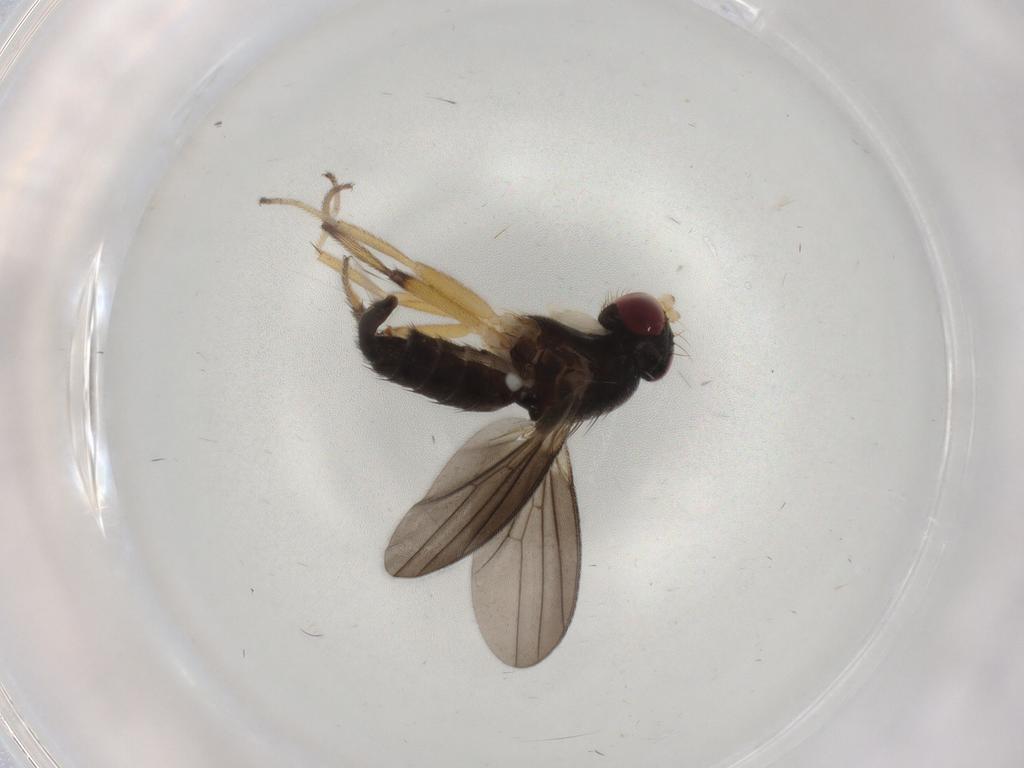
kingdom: Animalia
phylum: Arthropoda
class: Insecta
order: Diptera
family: Clusiidae
